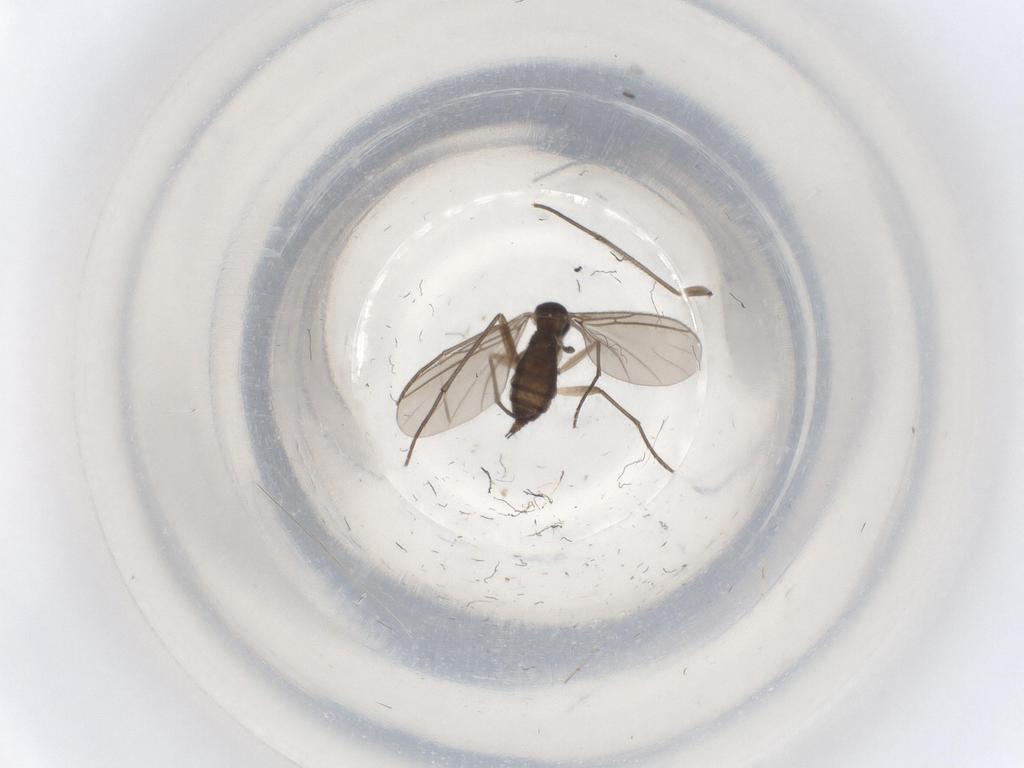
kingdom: Animalia
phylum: Arthropoda
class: Insecta
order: Diptera
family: Sciaridae
